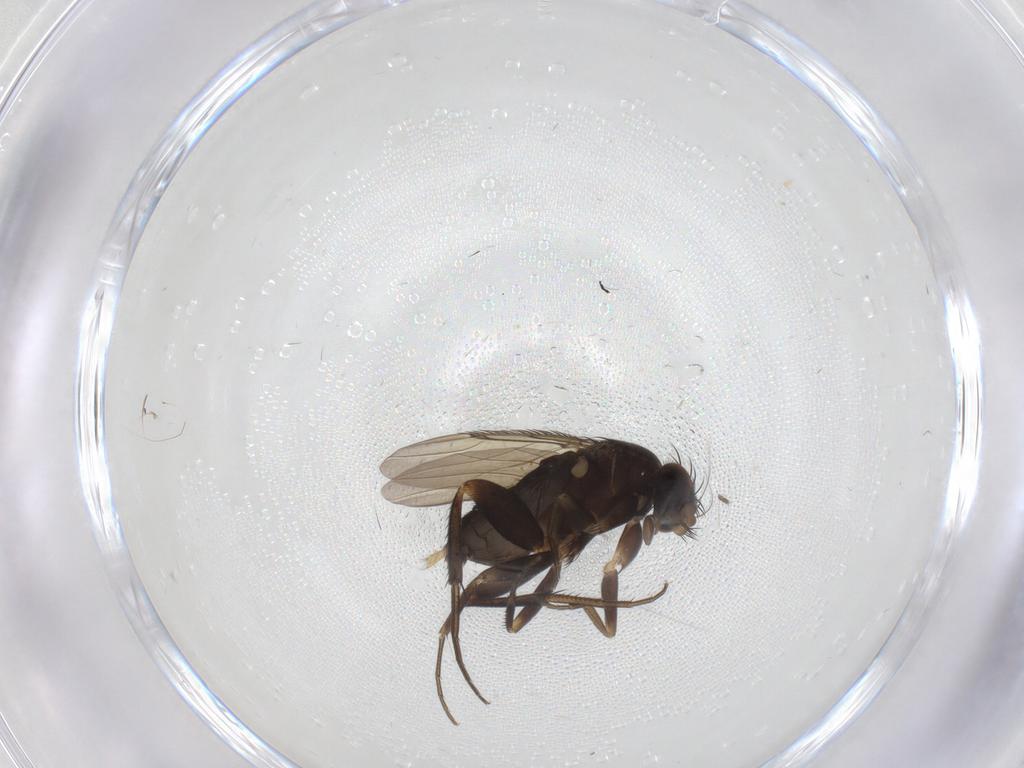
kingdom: Animalia
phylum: Arthropoda
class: Insecta
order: Diptera
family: Phoridae
